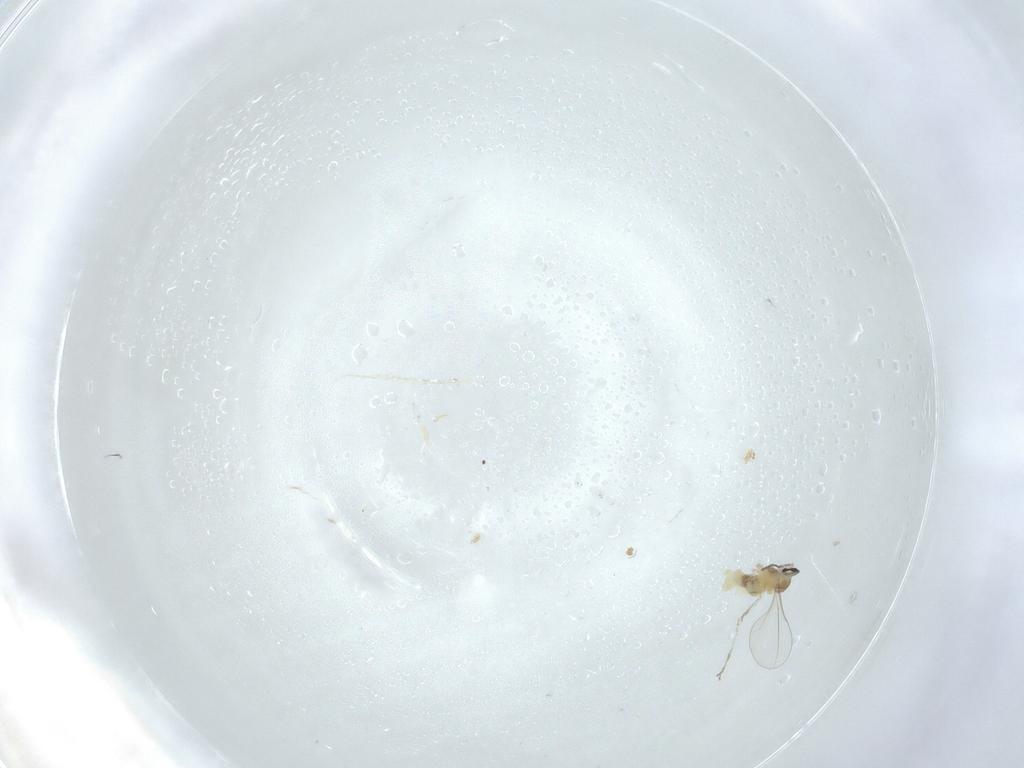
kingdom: Animalia
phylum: Arthropoda
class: Insecta
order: Diptera
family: Cecidomyiidae
